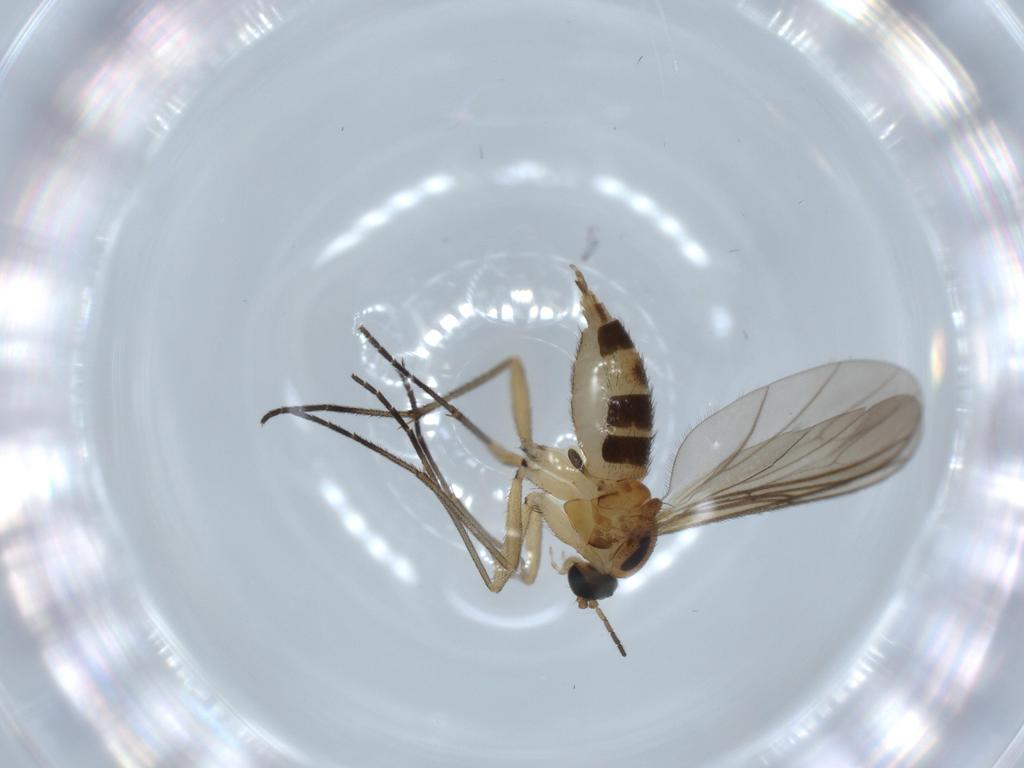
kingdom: Animalia
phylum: Arthropoda
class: Insecta
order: Diptera
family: Sciaridae
